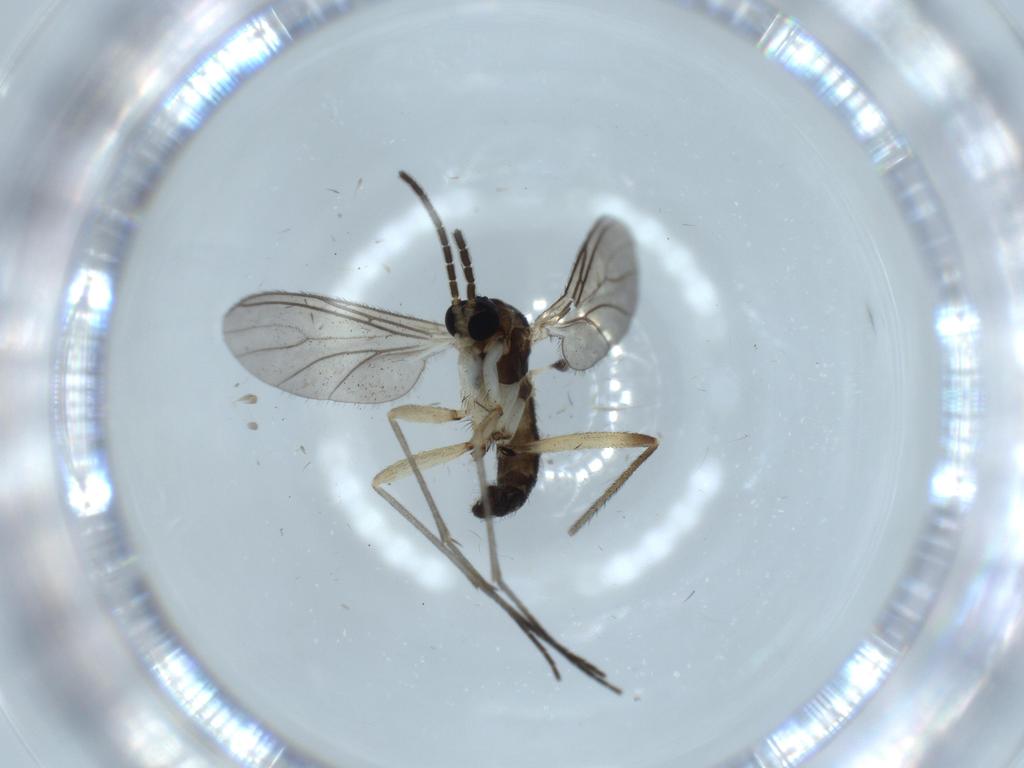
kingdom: Animalia
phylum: Arthropoda
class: Insecta
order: Diptera
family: Sciaridae
